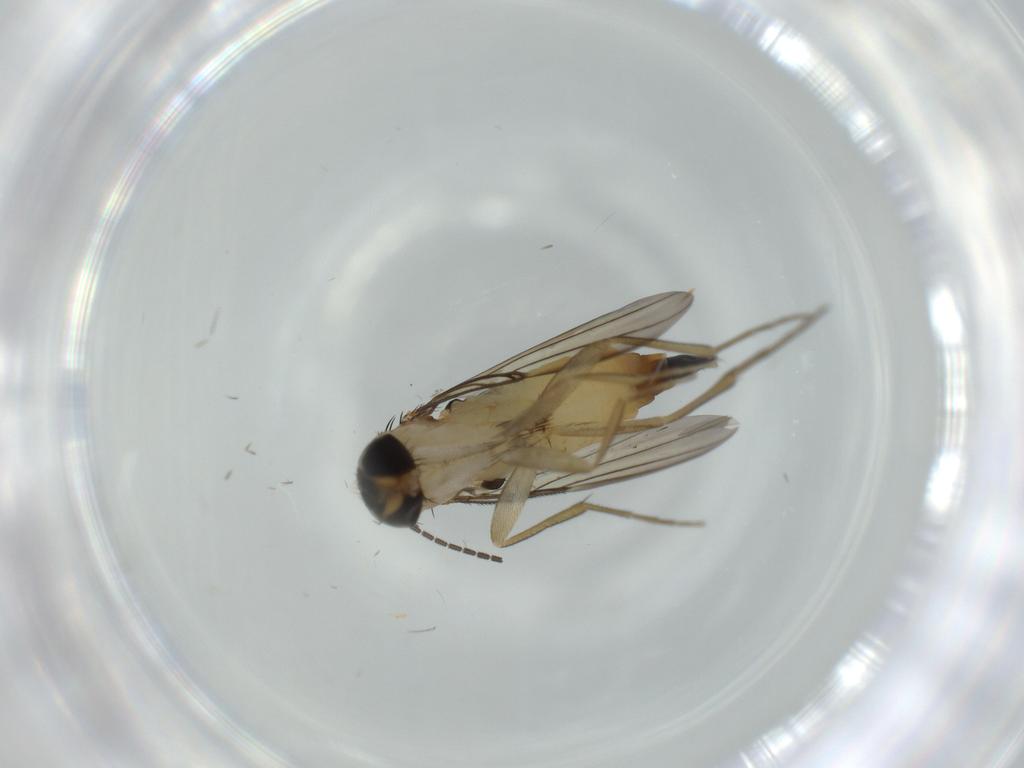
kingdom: Animalia
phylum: Arthropoda
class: Insecta
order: Diptera
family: Phoridae
